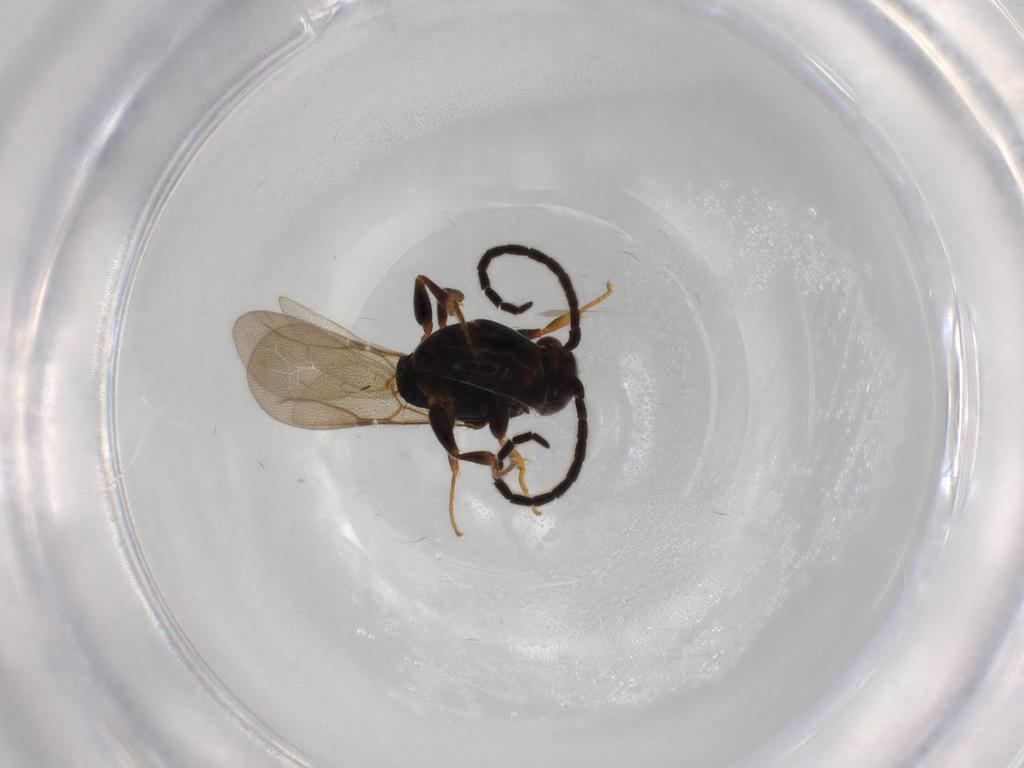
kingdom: Animalia
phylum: Arthropoda
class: Insecta
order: Hymenoptera
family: Bethylidae
